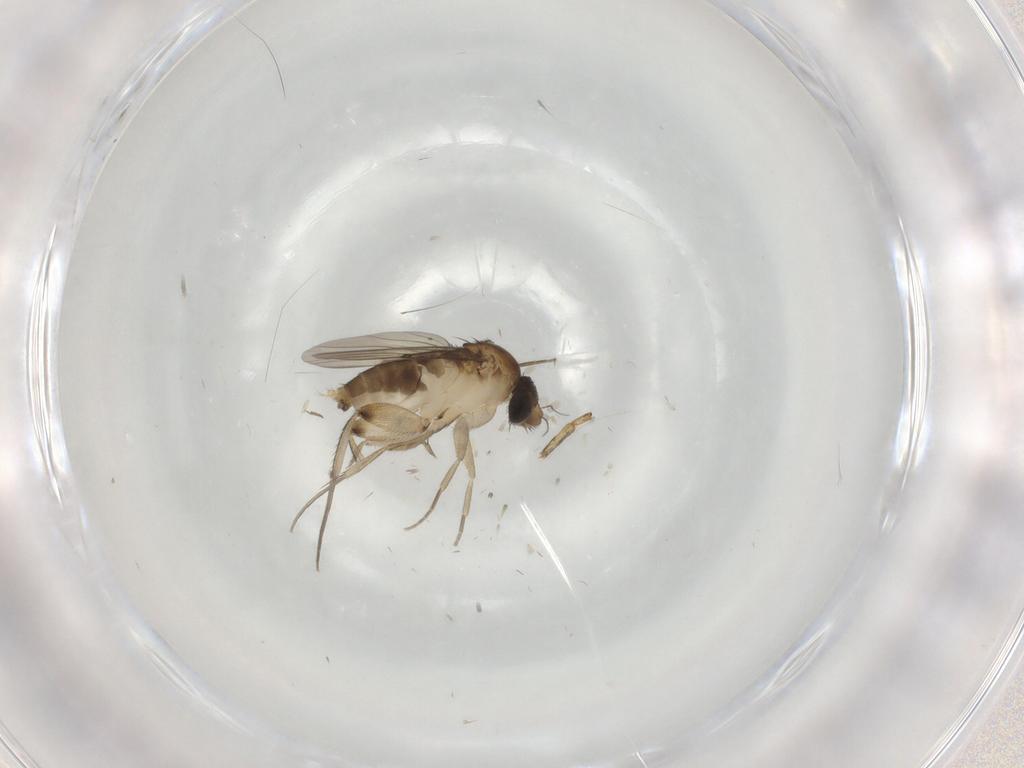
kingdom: Animalia
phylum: Arthropoda
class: Insecta
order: Diptera
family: Phoridae
